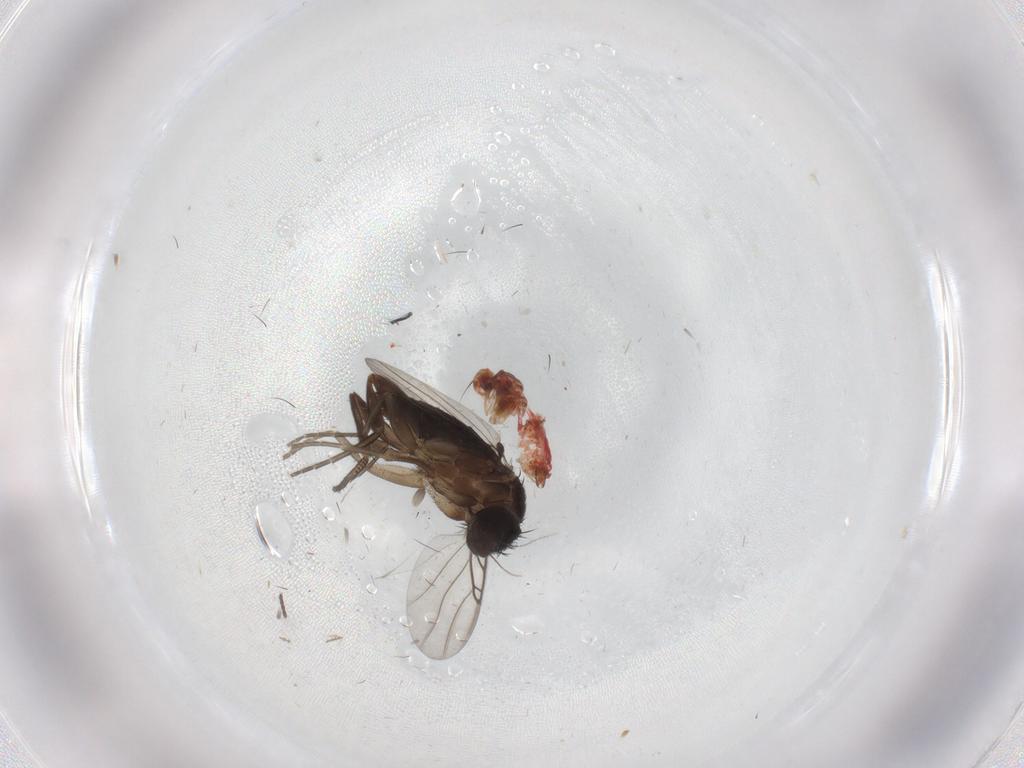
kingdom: Animalia
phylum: Arthropoda
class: Insecta
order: Diptera
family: Phoridae
